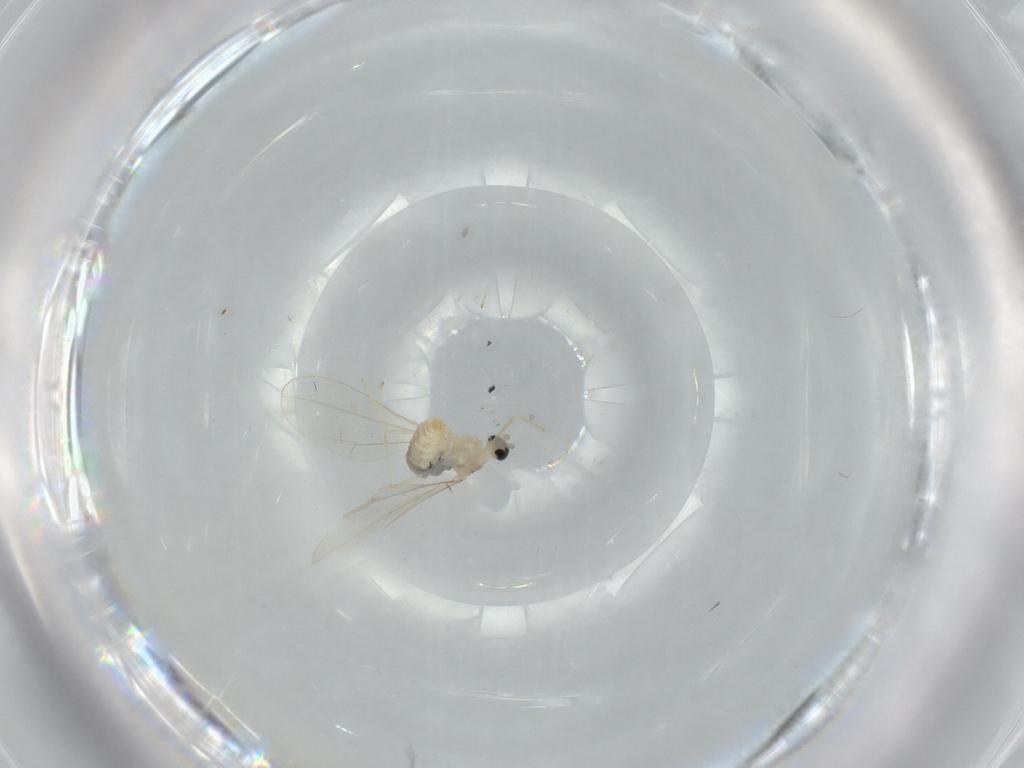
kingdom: Animalia
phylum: Arthropoda
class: Insecta
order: Diptera
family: Cecidomyiidae
